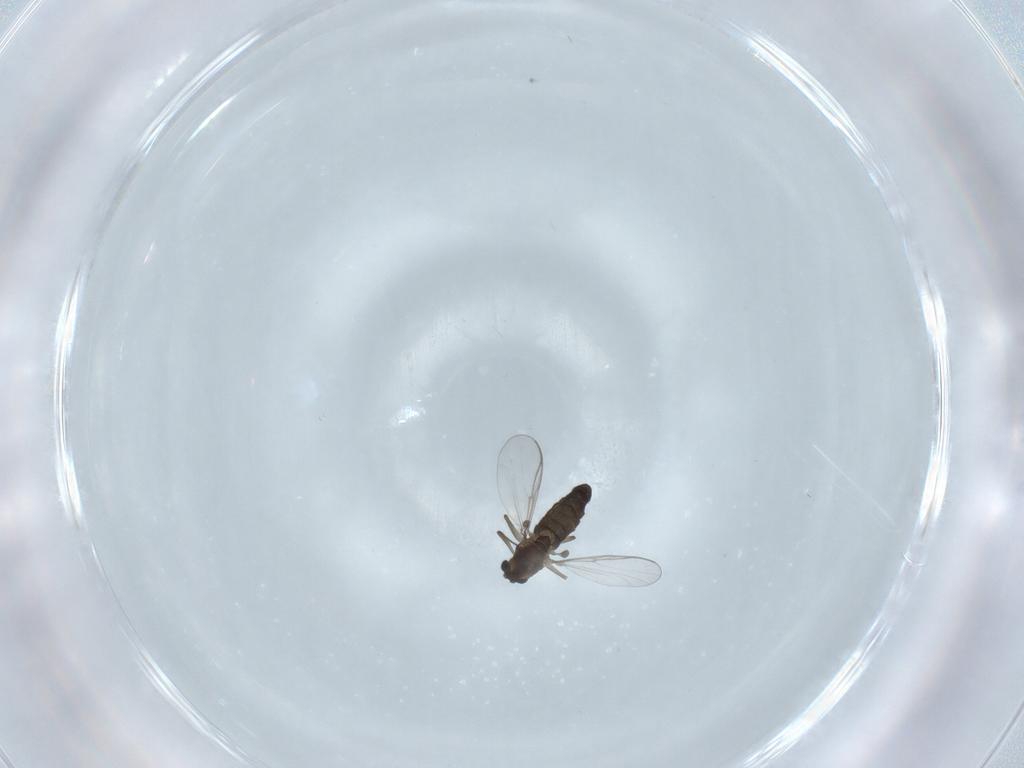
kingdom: Animalia
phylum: Arthropoda
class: Insecta
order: Diptera
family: Chironomidae
